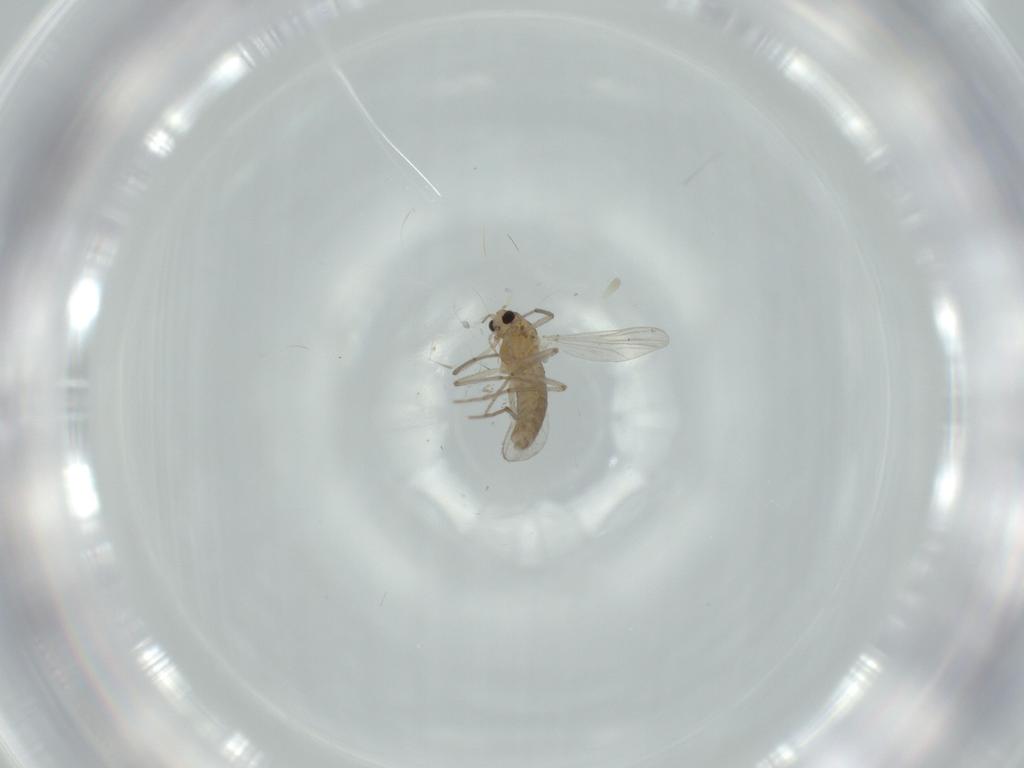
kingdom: Animalia
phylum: Arthropoda
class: Insecta
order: Diptera
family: Chironomidae
